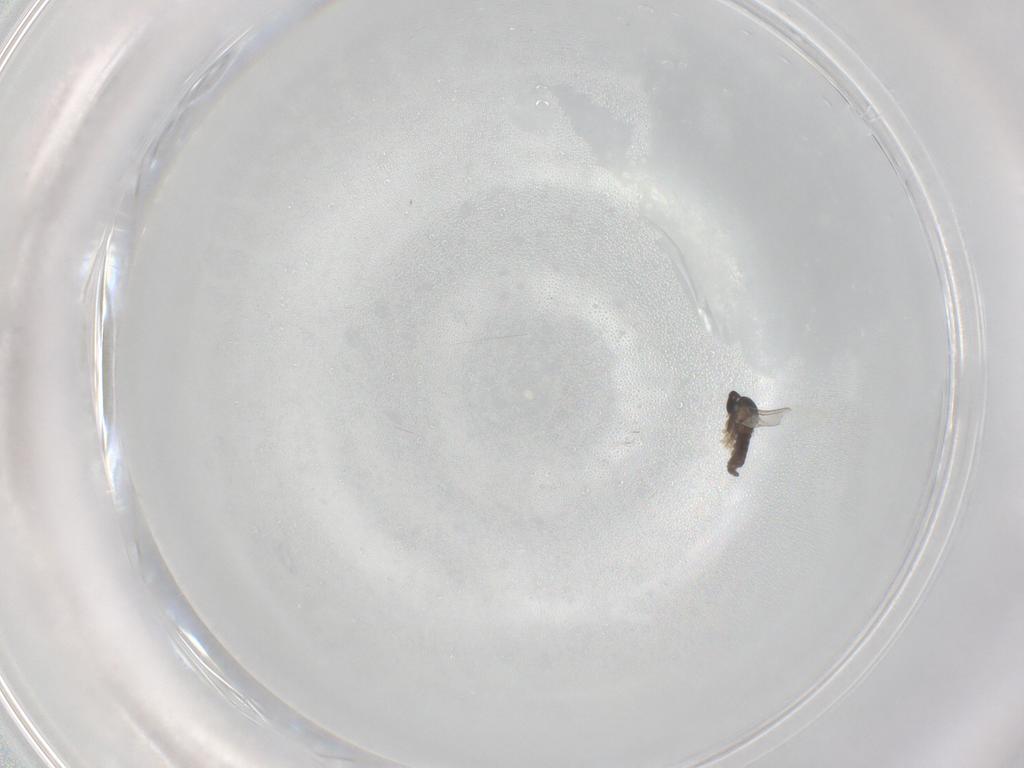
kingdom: Animalia
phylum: Arthropoda
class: Insecta
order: Diptera
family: Cecidomyiidae
